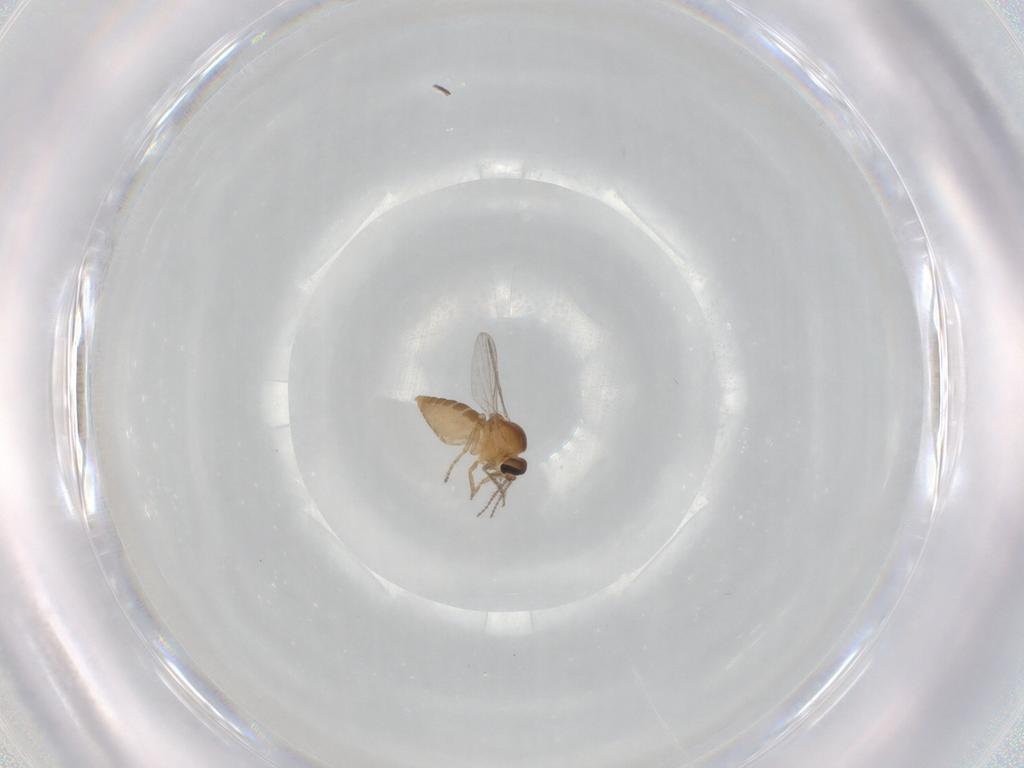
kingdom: Animalia
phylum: Arthropoda
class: Insecta
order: Diptera
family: Ceratopogonidae
